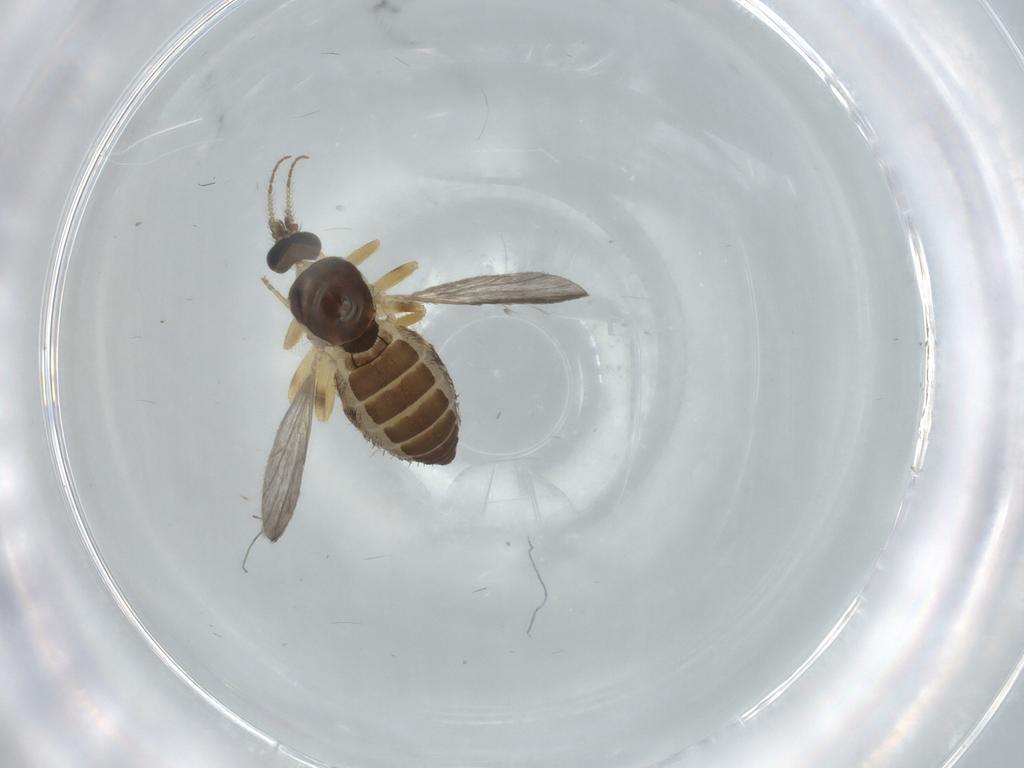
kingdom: Animalia
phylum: Arthropoda
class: Insecta
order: Diptera
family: Ceratopogonidae
